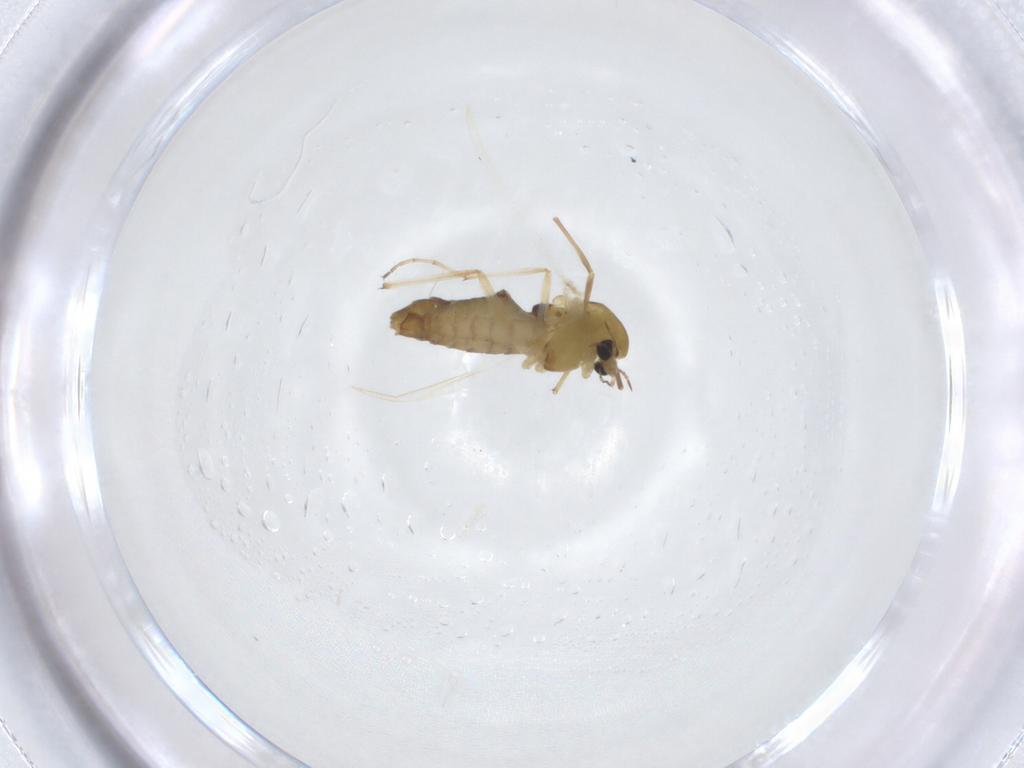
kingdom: Animalia
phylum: Arthropoda
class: Insecta
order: Diptera
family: Chironomidae
